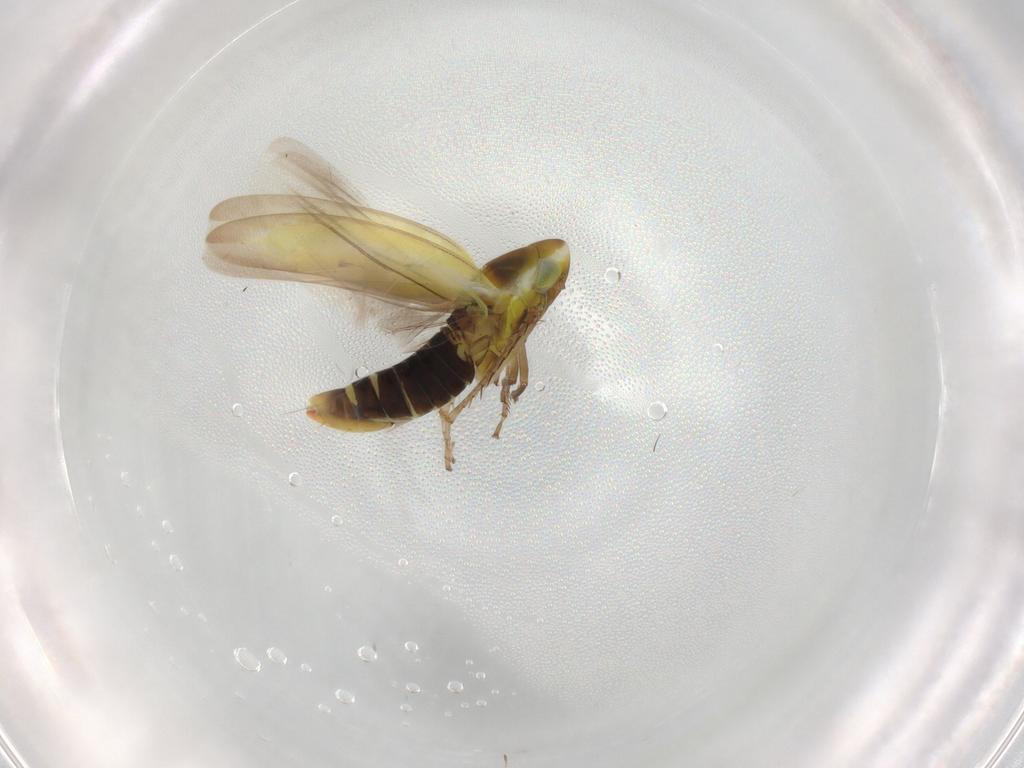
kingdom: Animalia
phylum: Arthropoda
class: Insecta
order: Hemiptera
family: Cicadellidae
